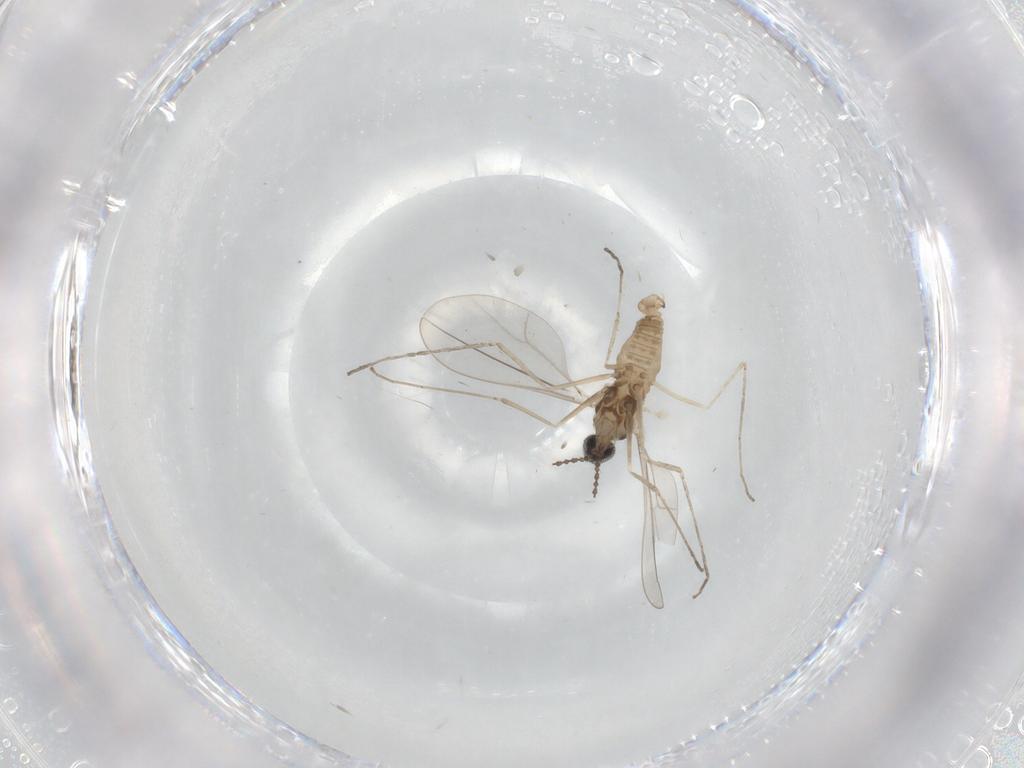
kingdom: Animalia
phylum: Arthropoda
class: Insecta
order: Diptera
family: Cecidomyiidae
